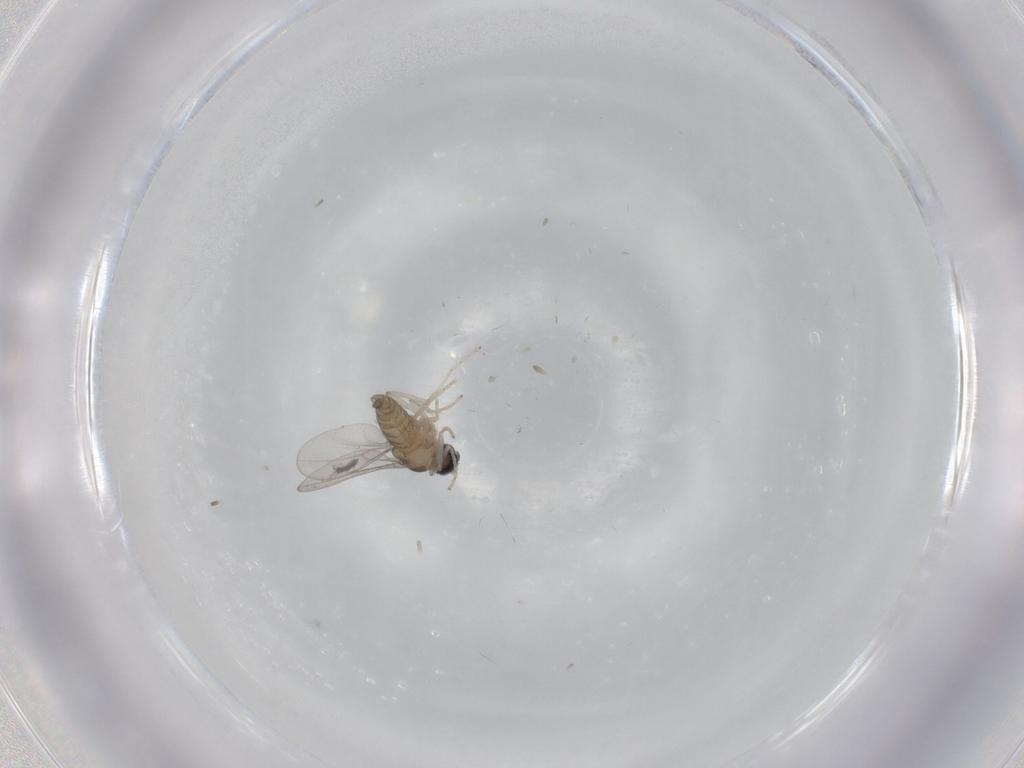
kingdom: Animalia
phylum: Arthropoda
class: Insecta
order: Diptera
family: Cecidomyiidae
